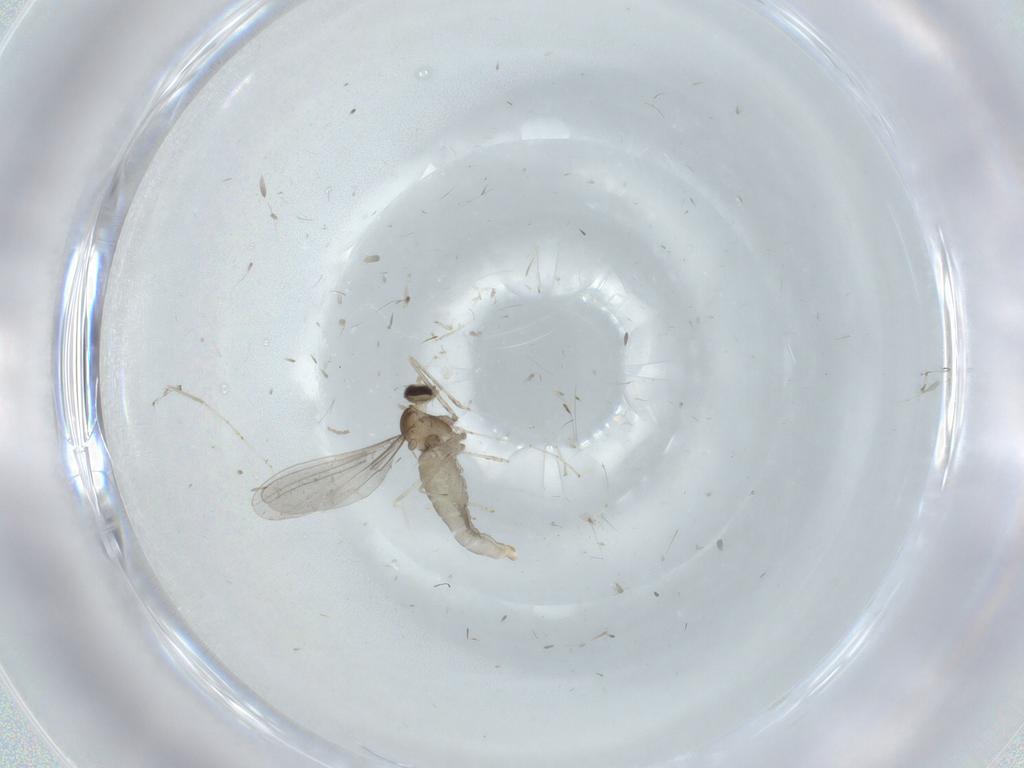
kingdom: Animalia
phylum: Arthropoda
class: Insecta
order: Diptera
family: Cecidomyiidae
